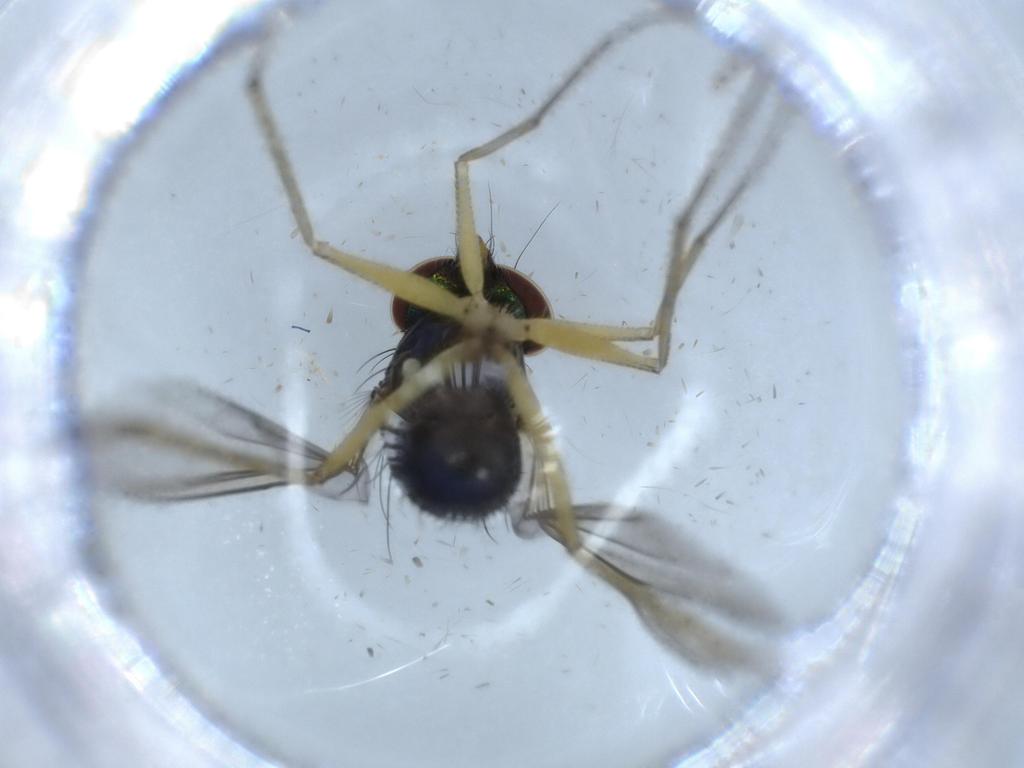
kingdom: Animalia
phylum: Arthropoda
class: Insecta
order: Diptera
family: Dolichopodidae
